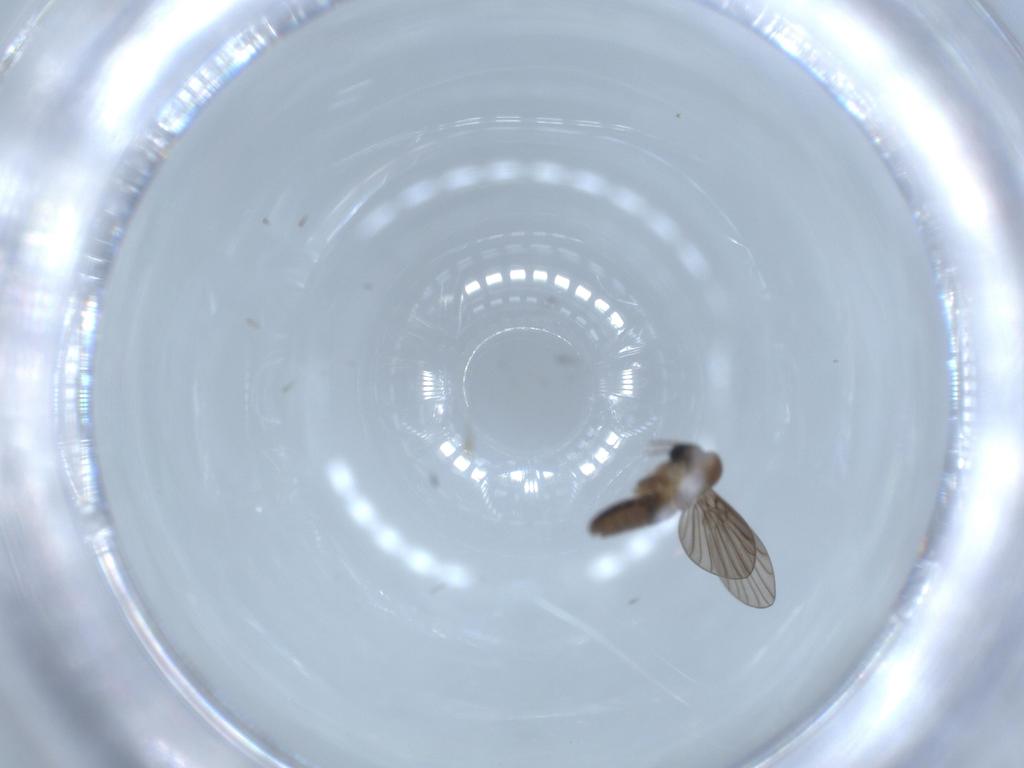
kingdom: Animalia
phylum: Arthropoda
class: Insecta
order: Diptera
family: Psychodidae
